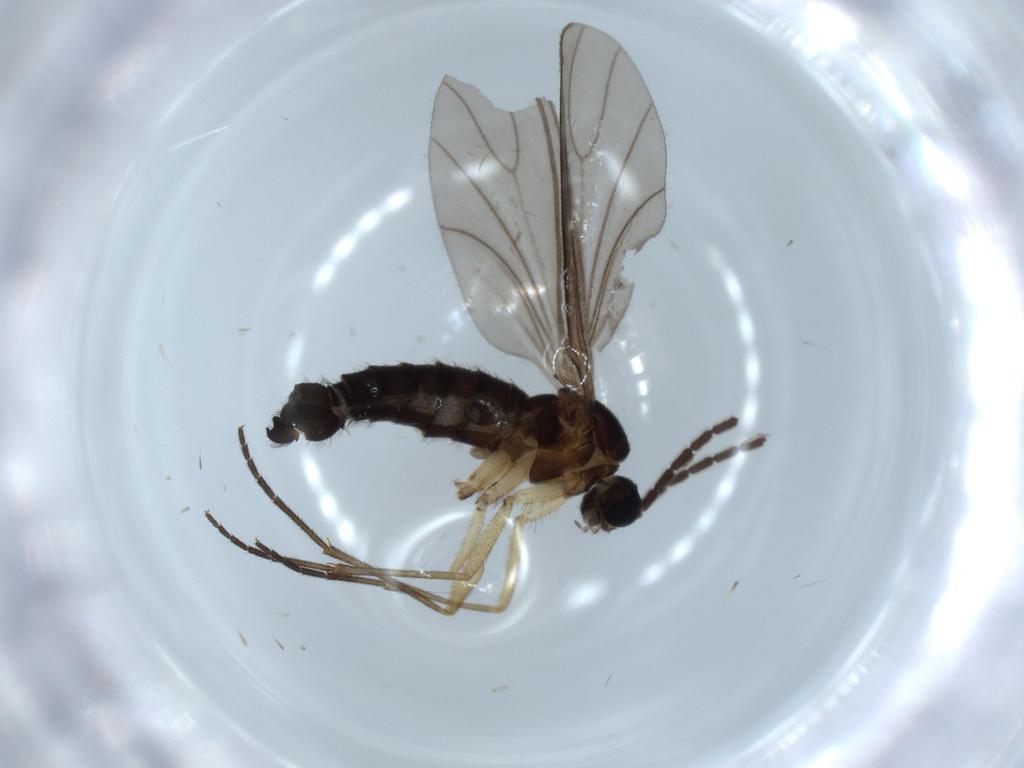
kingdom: Animalia
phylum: Arthropoda
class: Insecta
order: Diptera
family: Sciaridae
